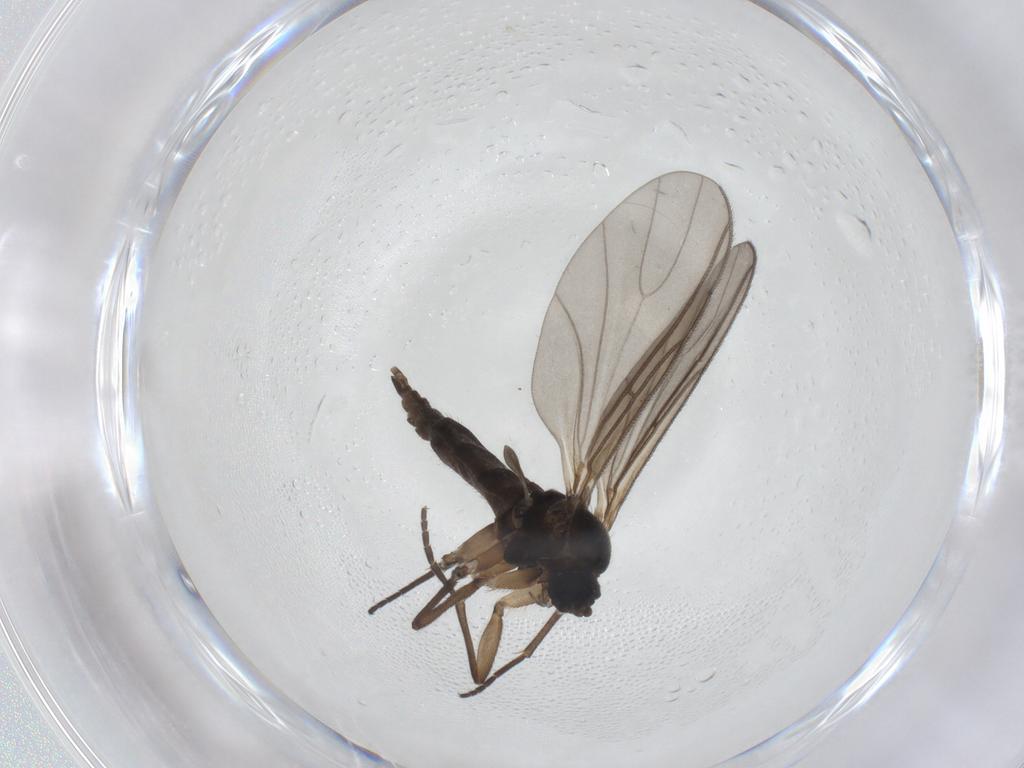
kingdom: Animalia
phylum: Arthropoda
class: Insecta
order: Diptera
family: Sciaridae
